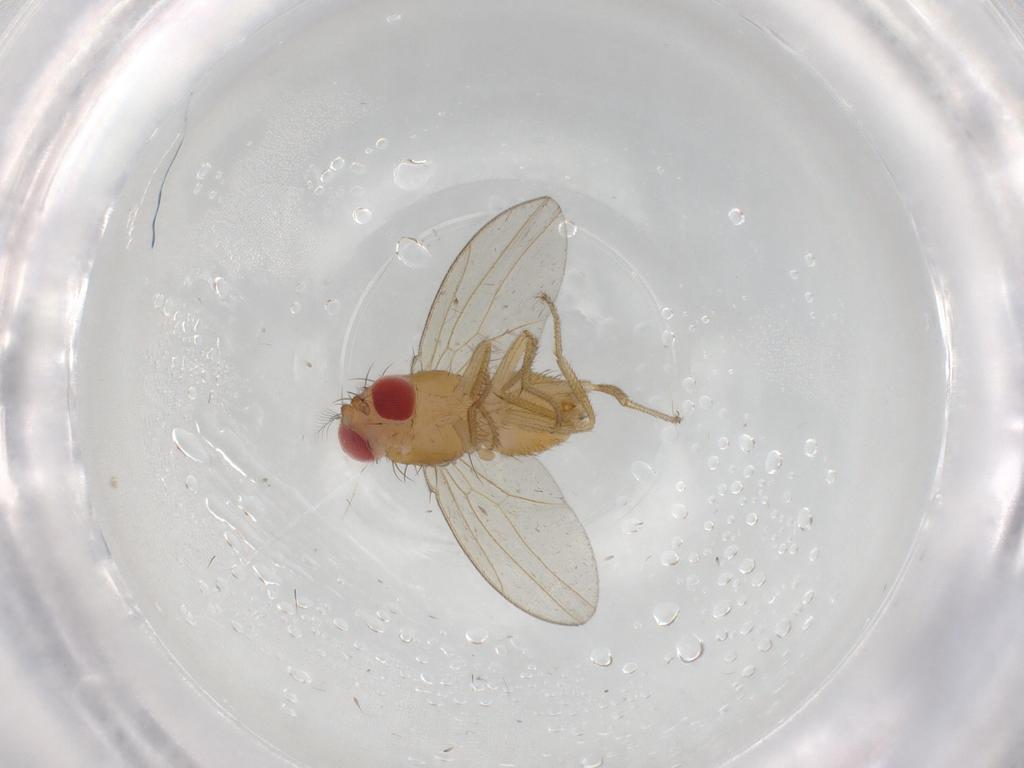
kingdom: Animalia
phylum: Arthropoda
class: Insecta
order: Diptera
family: Drosophilidae
